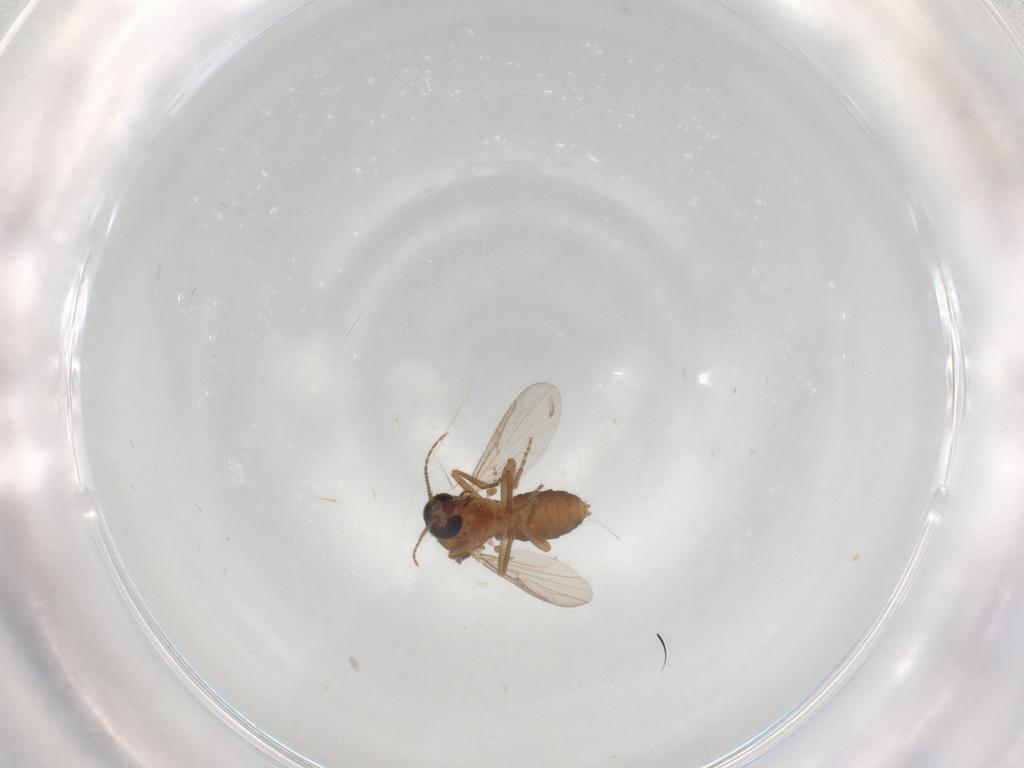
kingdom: Animalia
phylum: Arthropoda
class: Insecta
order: Diptera
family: Ceratopogonidae
